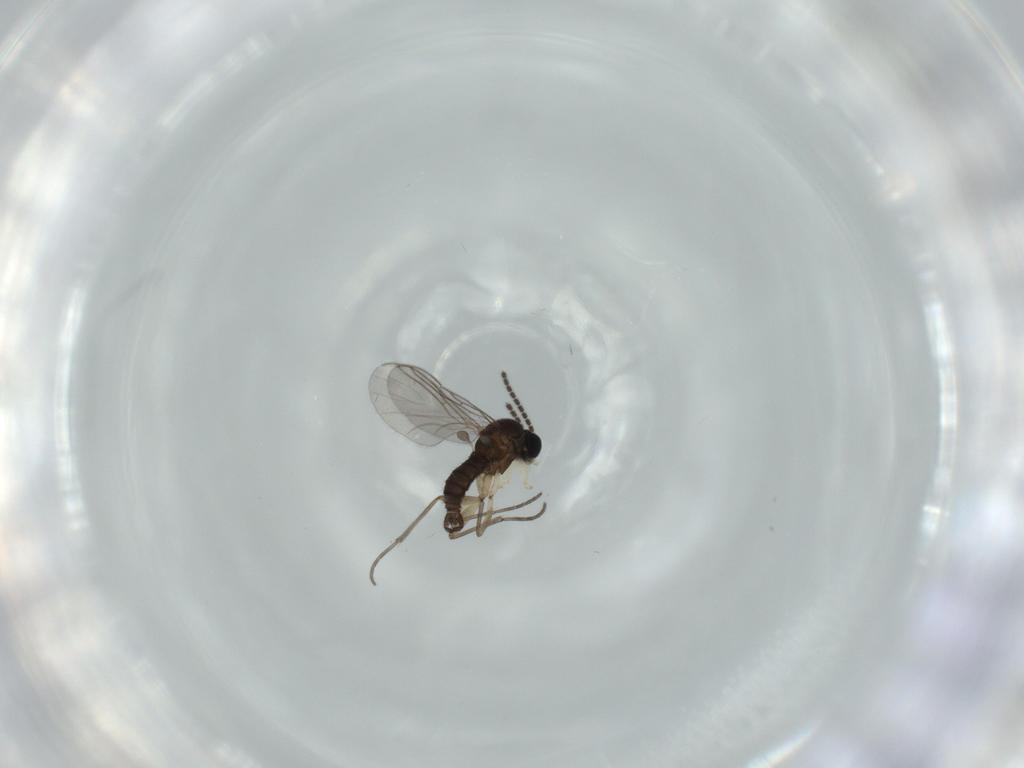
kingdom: Animalia
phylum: Arthropoda
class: Insecta
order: Diptera
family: Sciaridae
